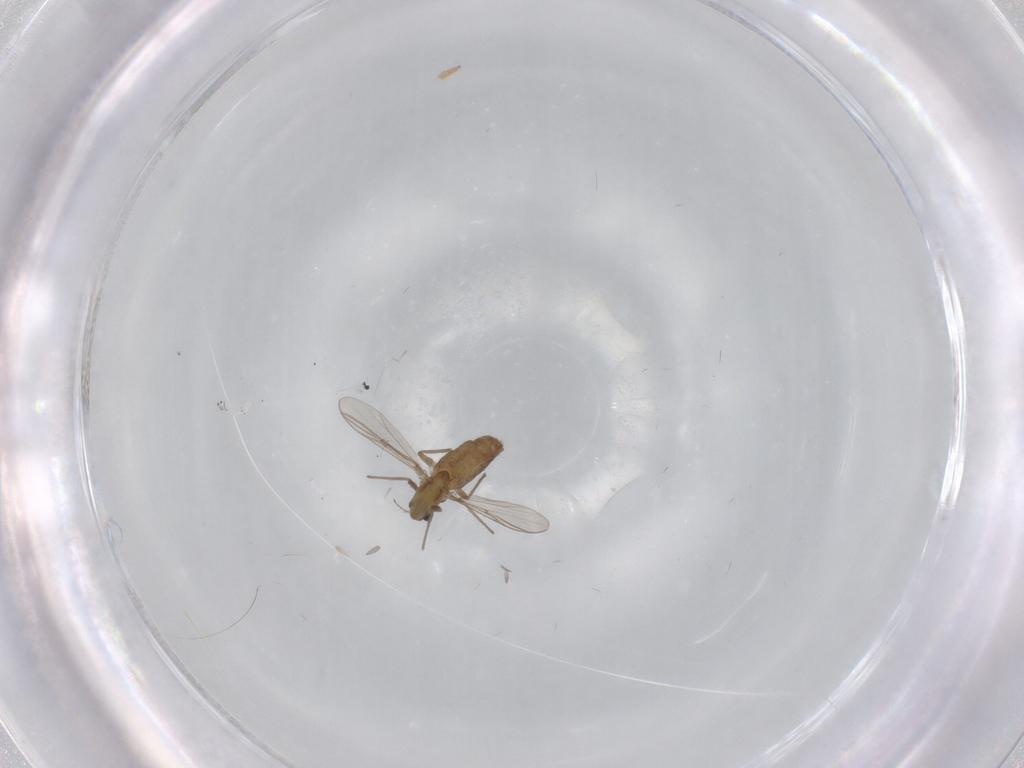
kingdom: Animalia
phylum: Arthropoda
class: Insecta
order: Diptera
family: Chironomidae
